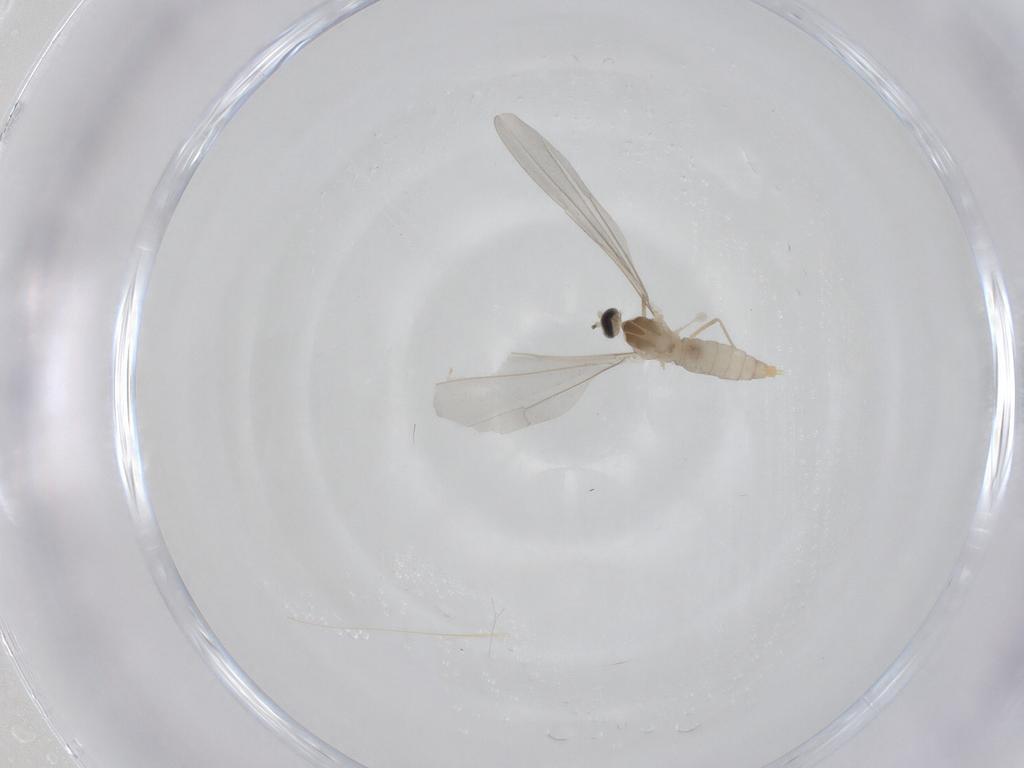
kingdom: Animalia
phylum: Arthropoda
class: Insecta
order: Diptera
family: Cecidomyiidae
